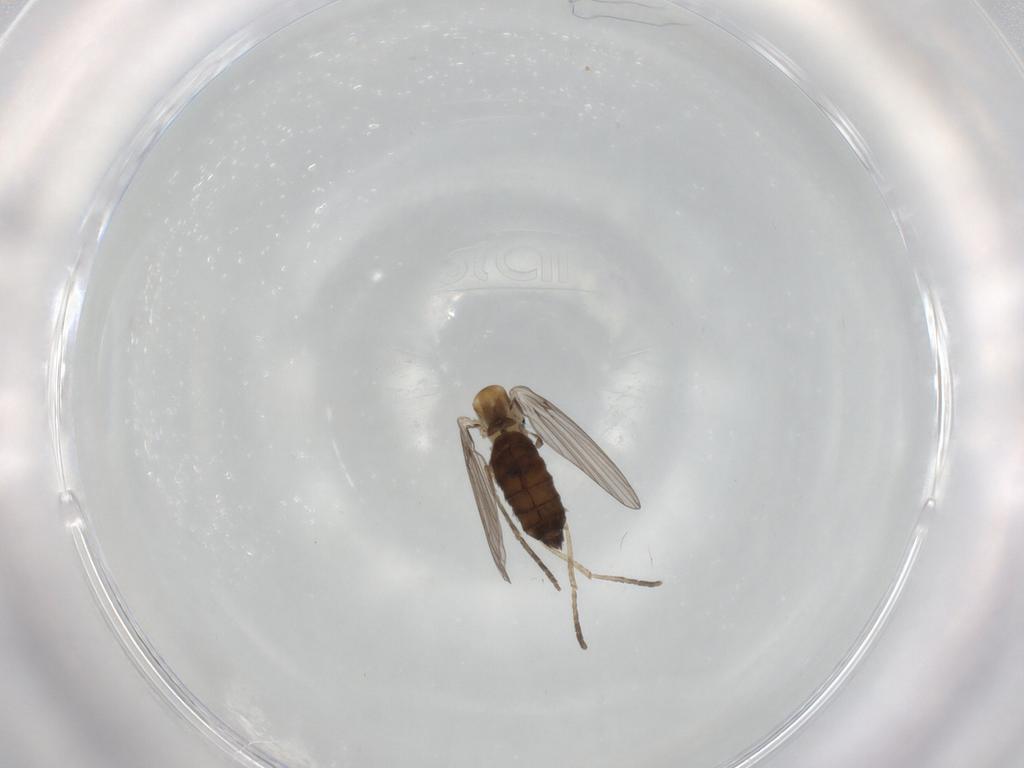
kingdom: Animalia
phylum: Arthropoda
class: Insecta
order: Diptera
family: Psychodidae
